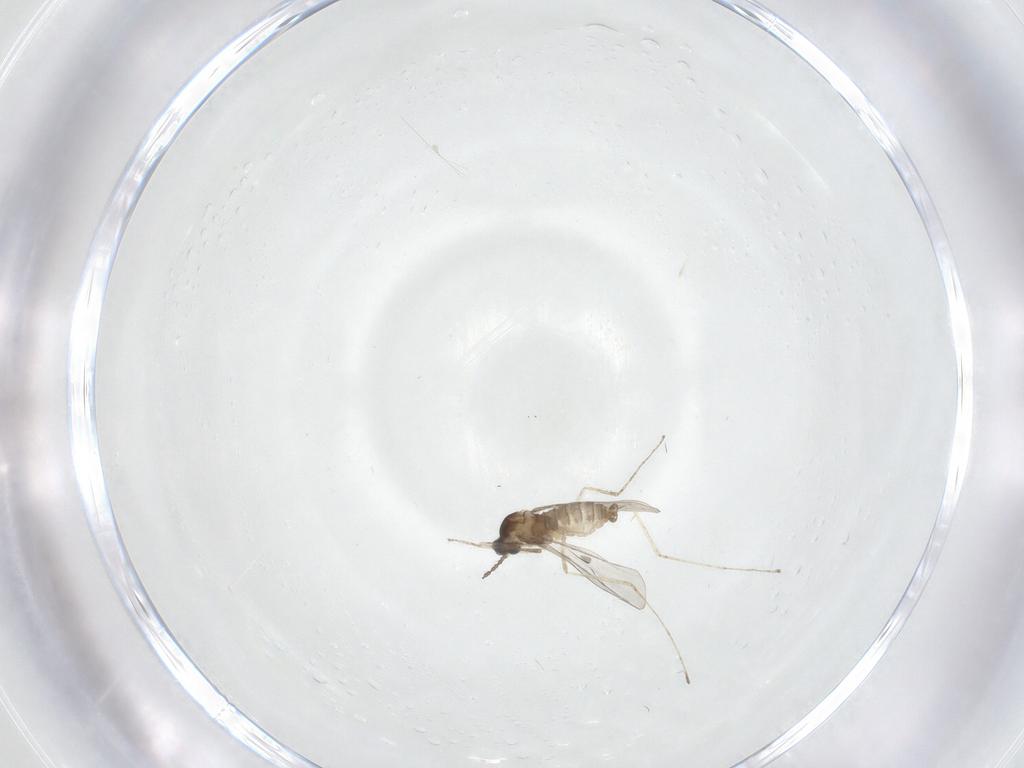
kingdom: Animalia
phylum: Arthropoda
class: Insecta
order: Diptera
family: Cecidomyiidae
